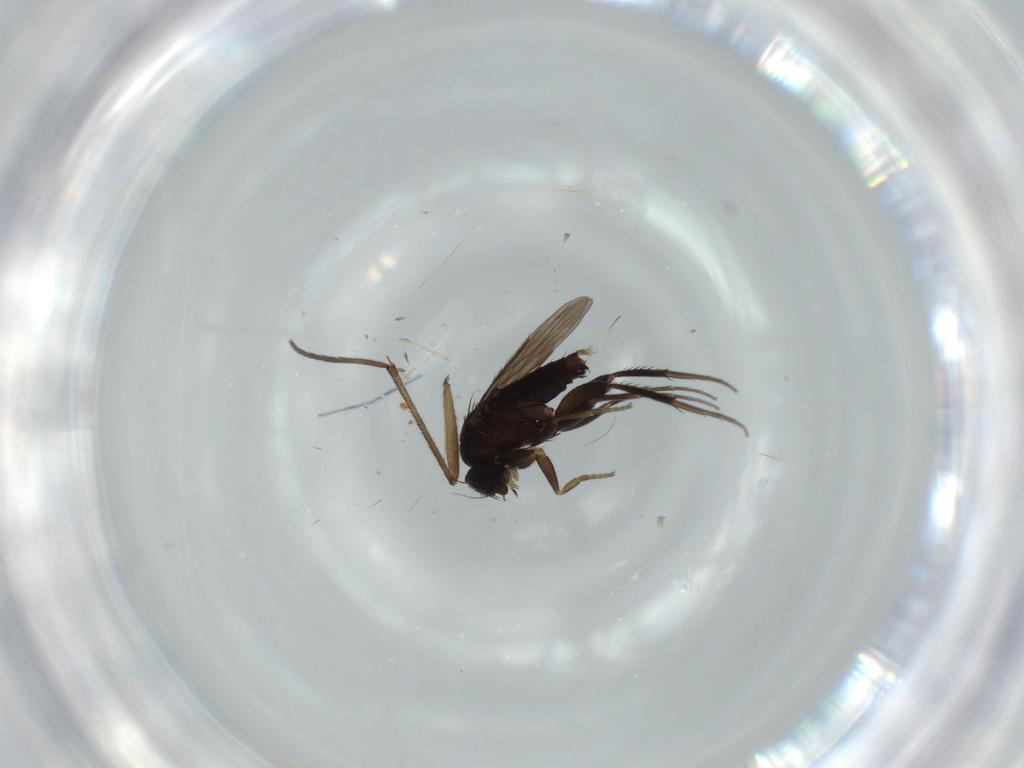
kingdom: Animalia
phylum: Arthropoda
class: Insecta
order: Diptera
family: Phoridae
